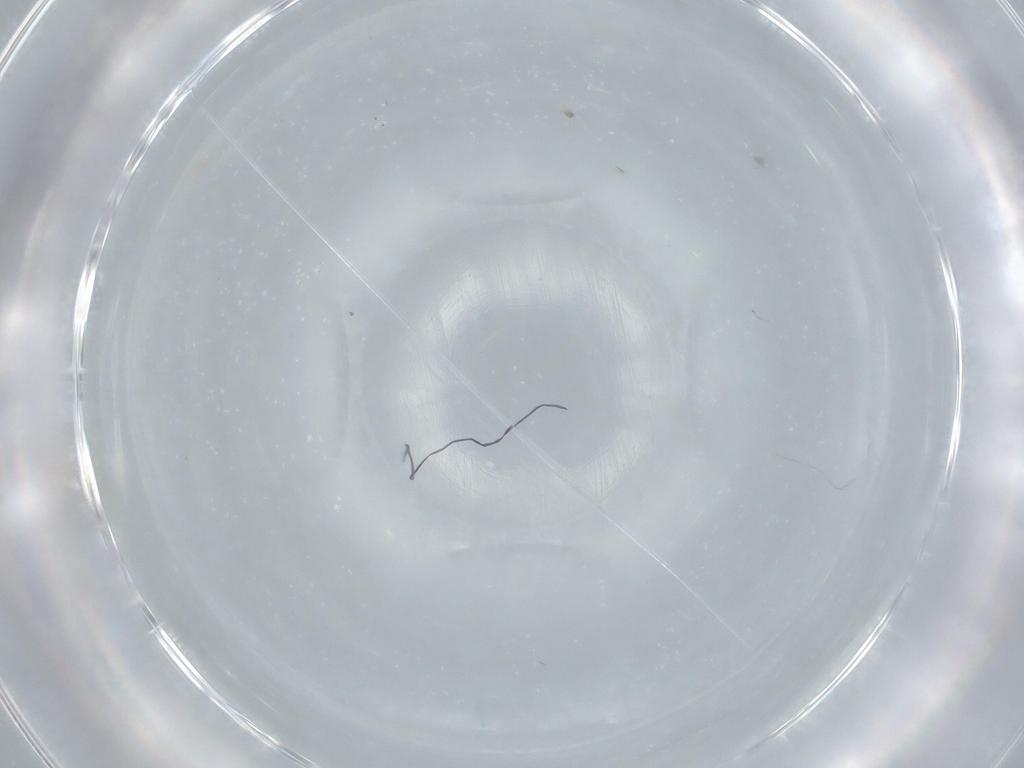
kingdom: Animalia
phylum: Arthropoda
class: Insecta
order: Diptera
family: Cecidomyiidae
